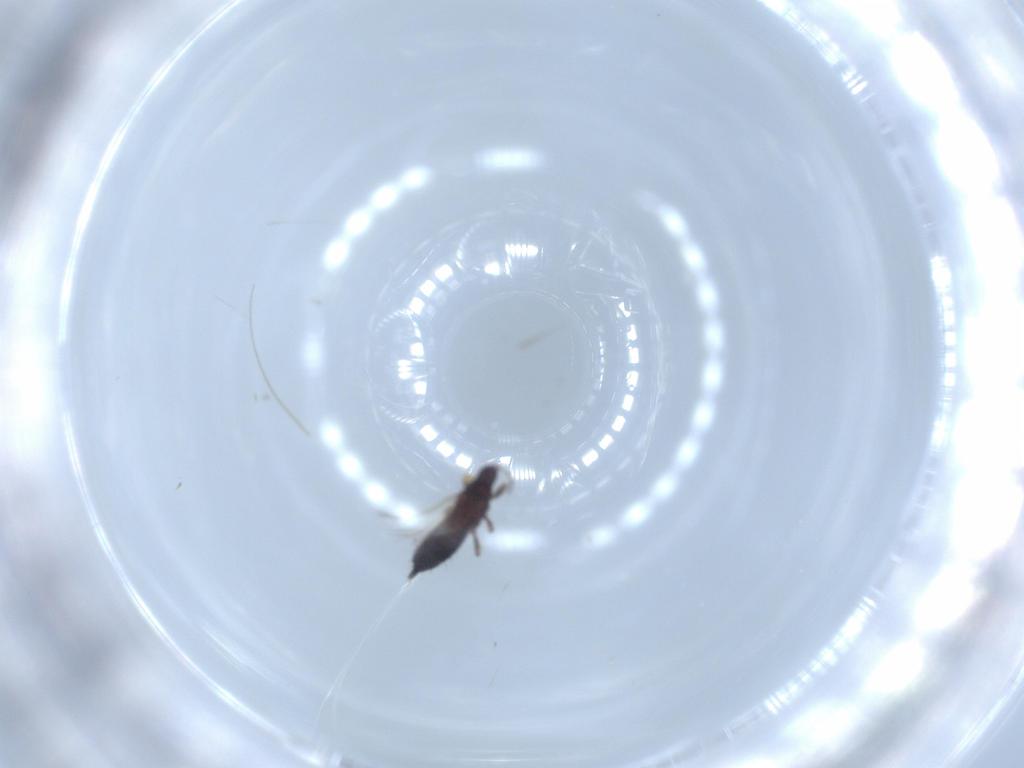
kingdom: Animalia
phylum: Arthropoda
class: Insecta
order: Thysanoptera
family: Phlaeothripidae
